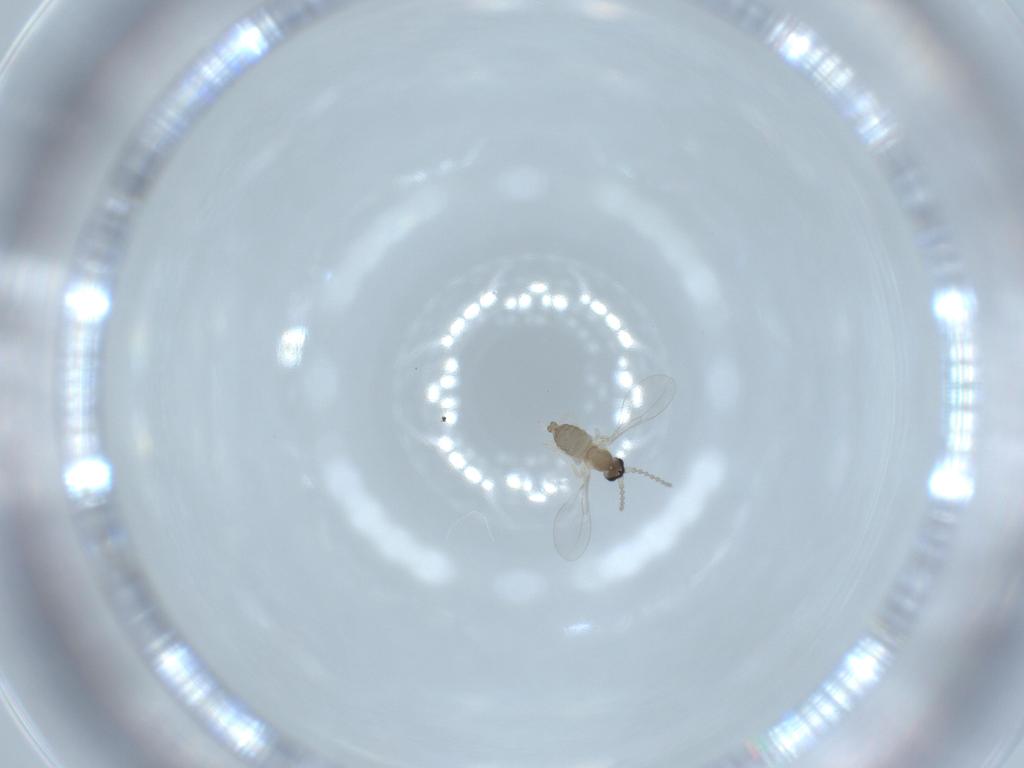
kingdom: Animalia
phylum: Arthropoda
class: Insecta
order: Diptera
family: Cecidomyiidae
